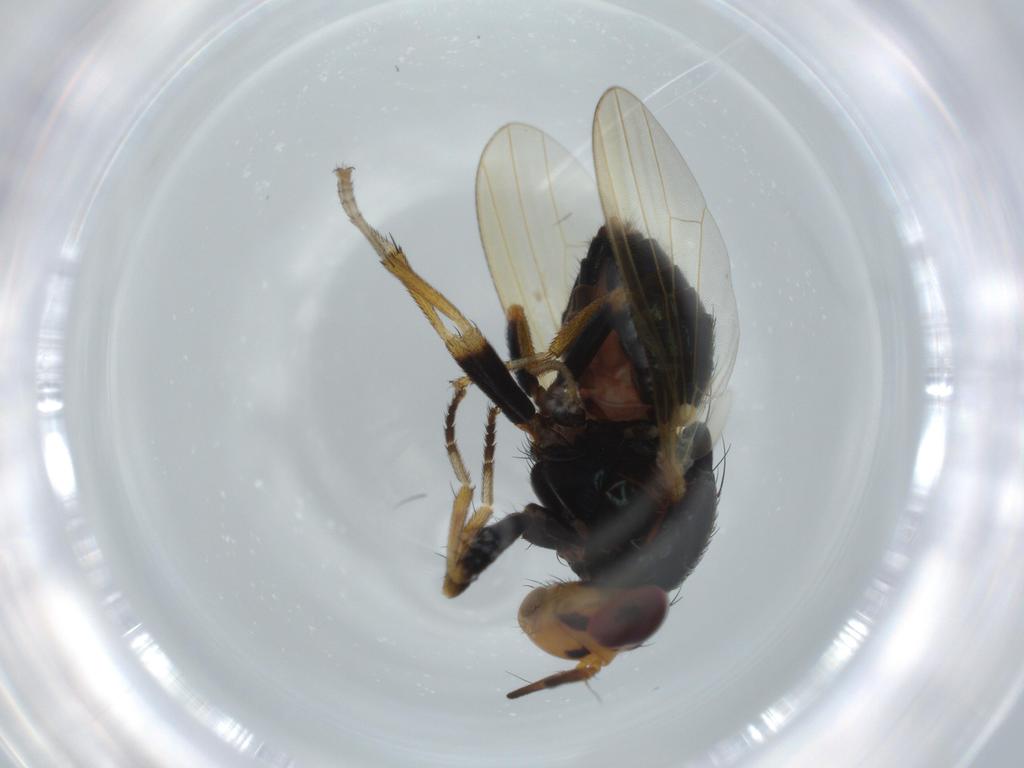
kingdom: Animalia
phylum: Arthropoda
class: Insecta
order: Diptera
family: Lauxaniidae
